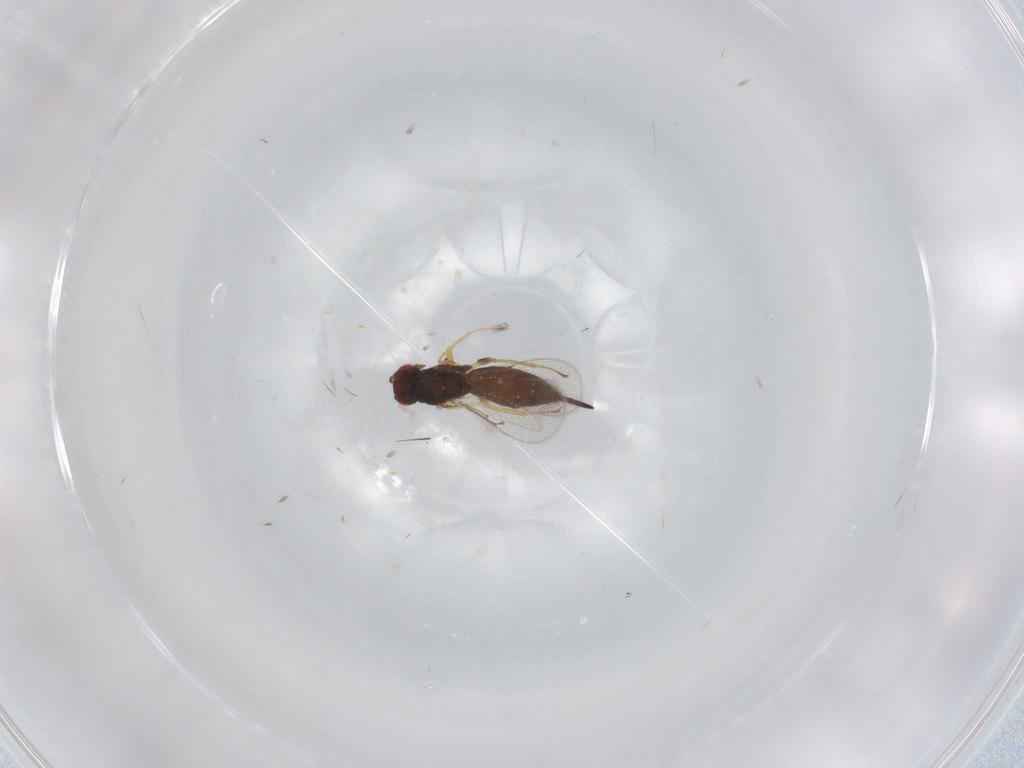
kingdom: Animalia
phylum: Arthropoda
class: Insecta
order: Hymenoptera
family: Eulophidae
